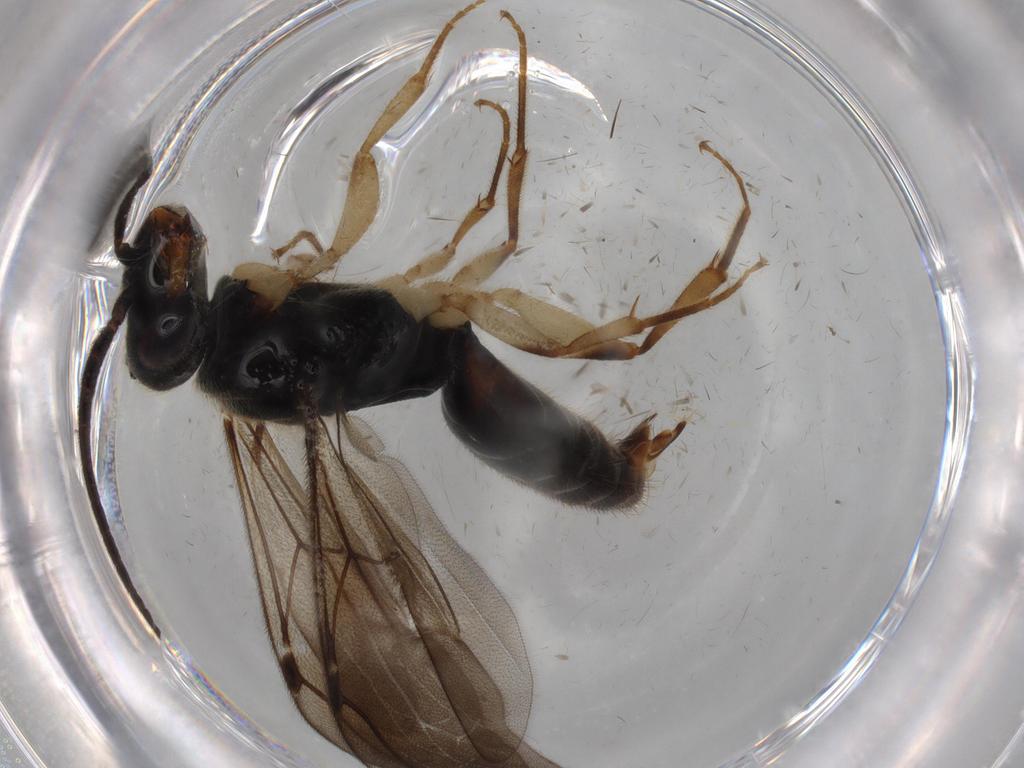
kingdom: Animalia
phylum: Arthropoda
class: Insecta
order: Hymenoptera
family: Bethylidae
